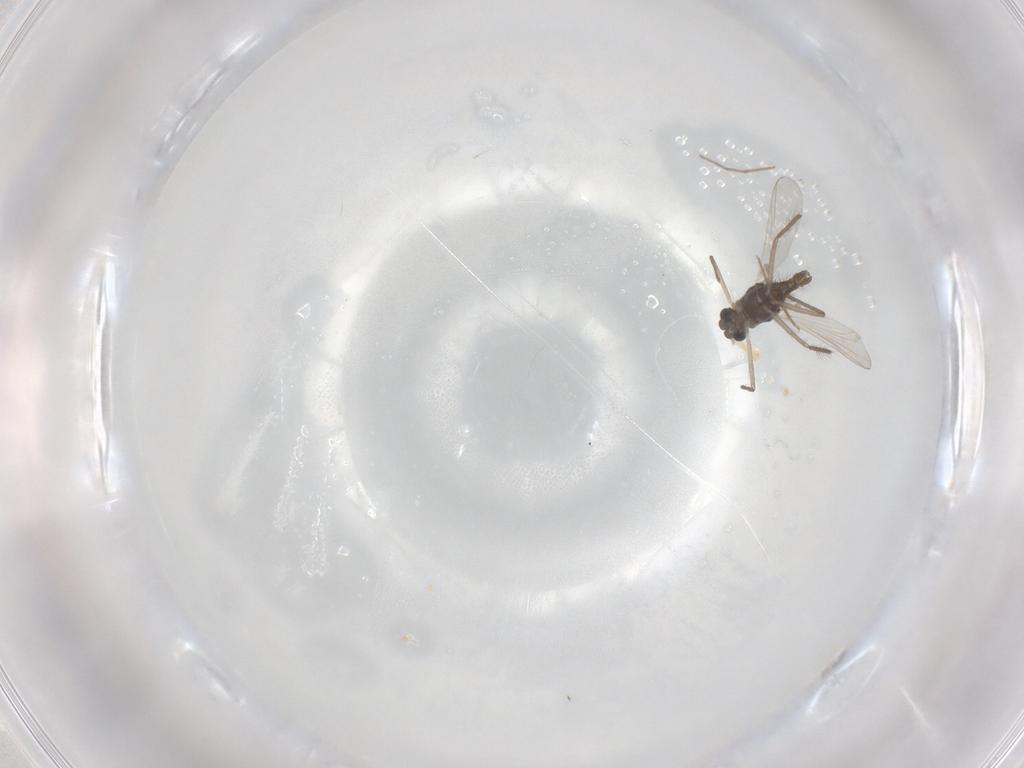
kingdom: Animalia
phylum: Arthropoda
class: Insecta
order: Diptera
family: Chironomidae
